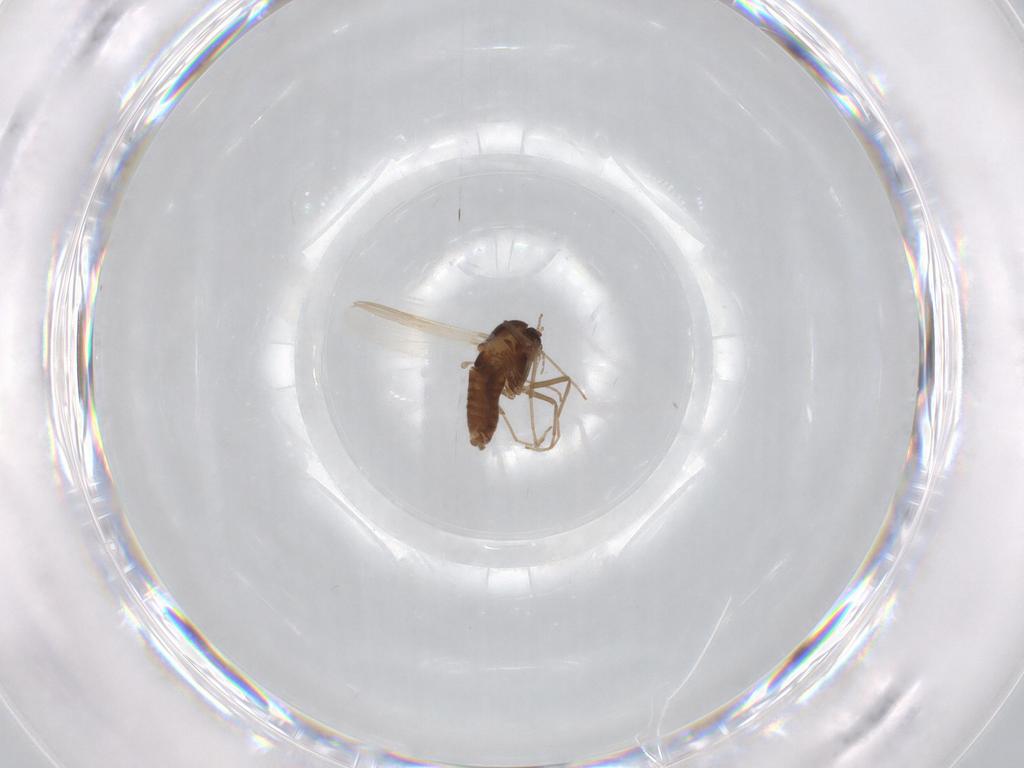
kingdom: Animalia
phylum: Arthropoda
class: Insecta
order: Diptera
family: Chironomidae
